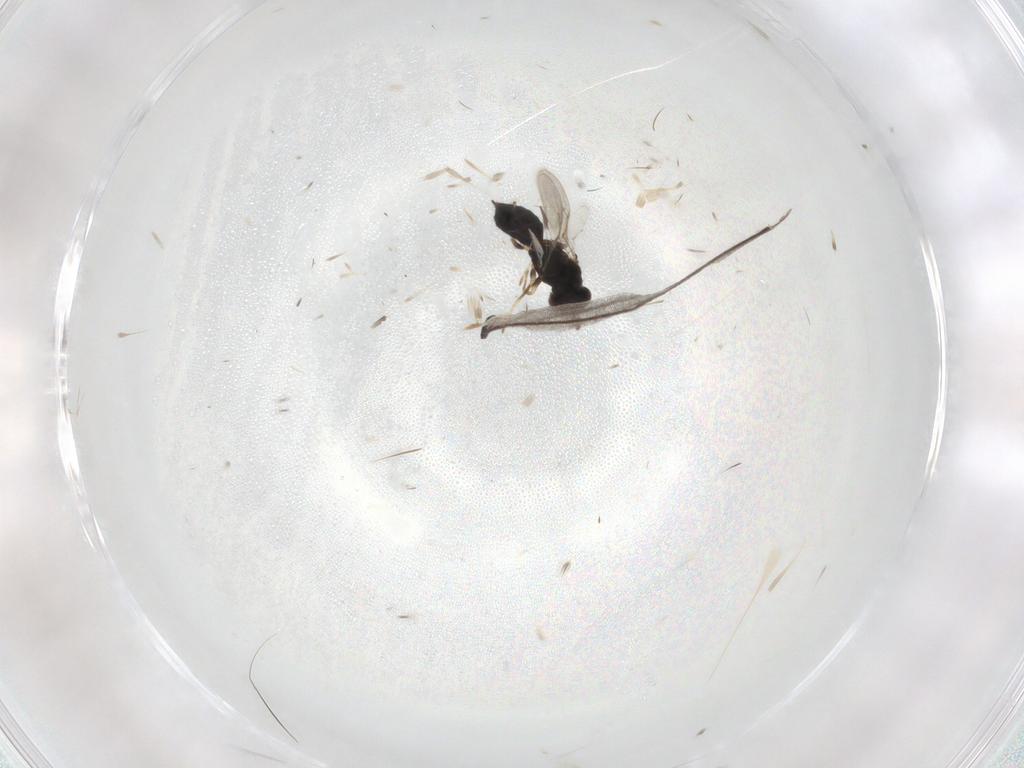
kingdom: Animalia
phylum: Arthropoda
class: Insecta
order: Hymenoptera
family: Pirenidae
